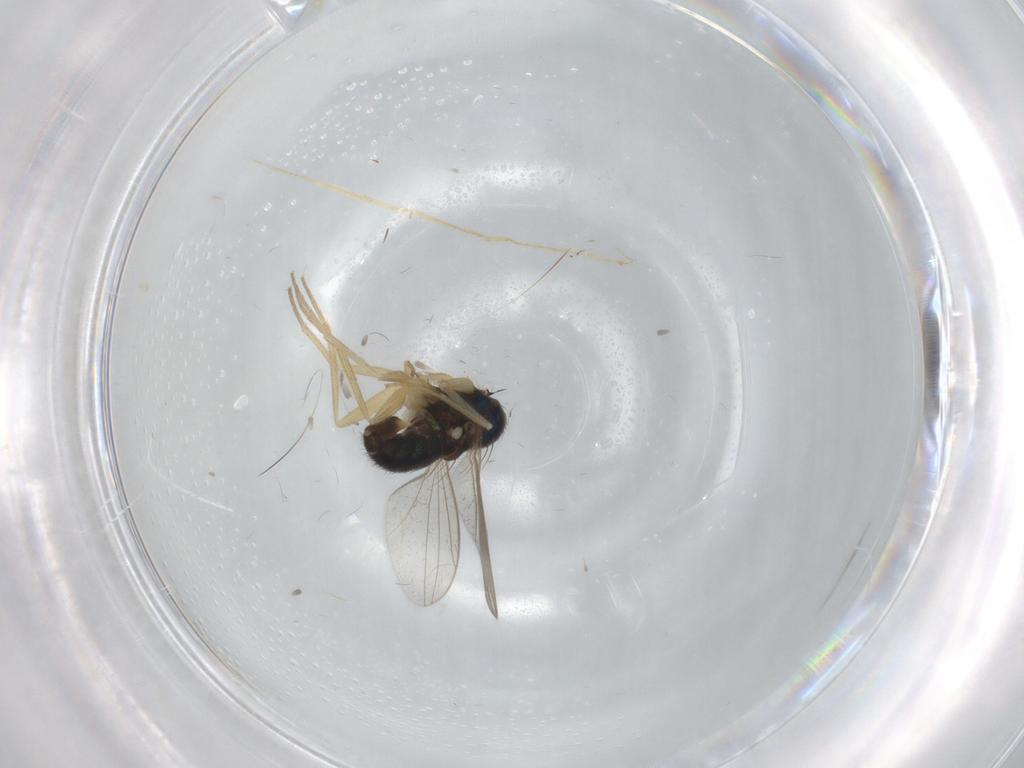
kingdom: Animalia
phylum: Arthropoda
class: Insecta
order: Diptera
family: Dolichopodidae
